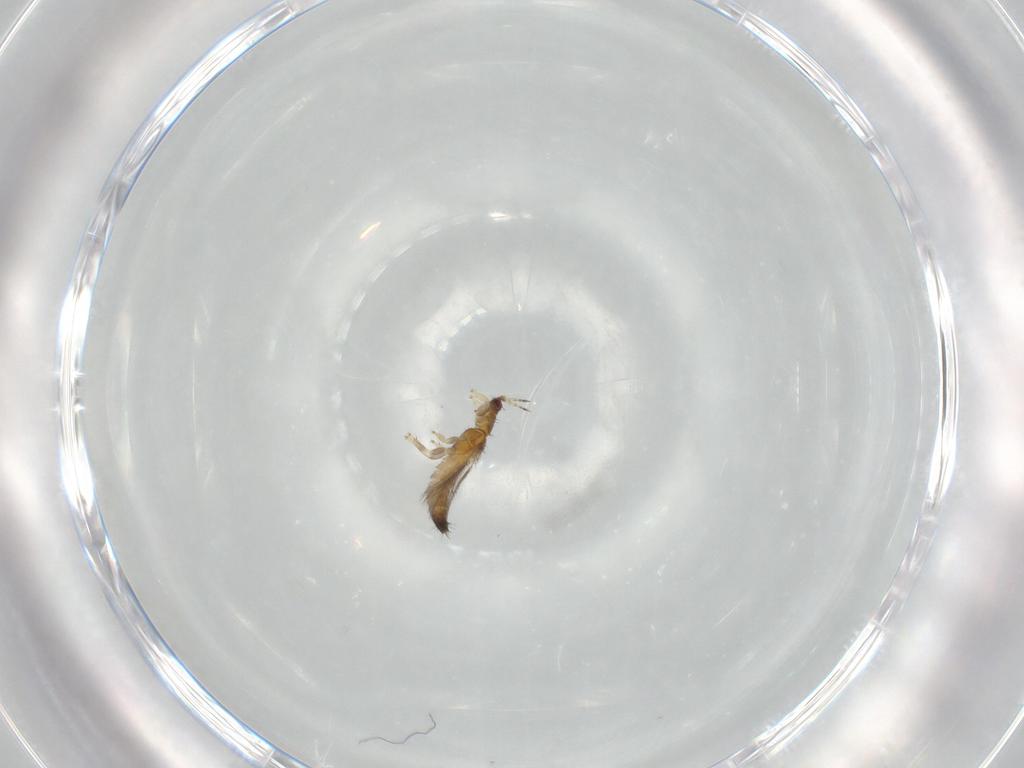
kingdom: Animalia
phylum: Arthropoda
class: Insecta
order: Thysanoptera
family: Thripidae
